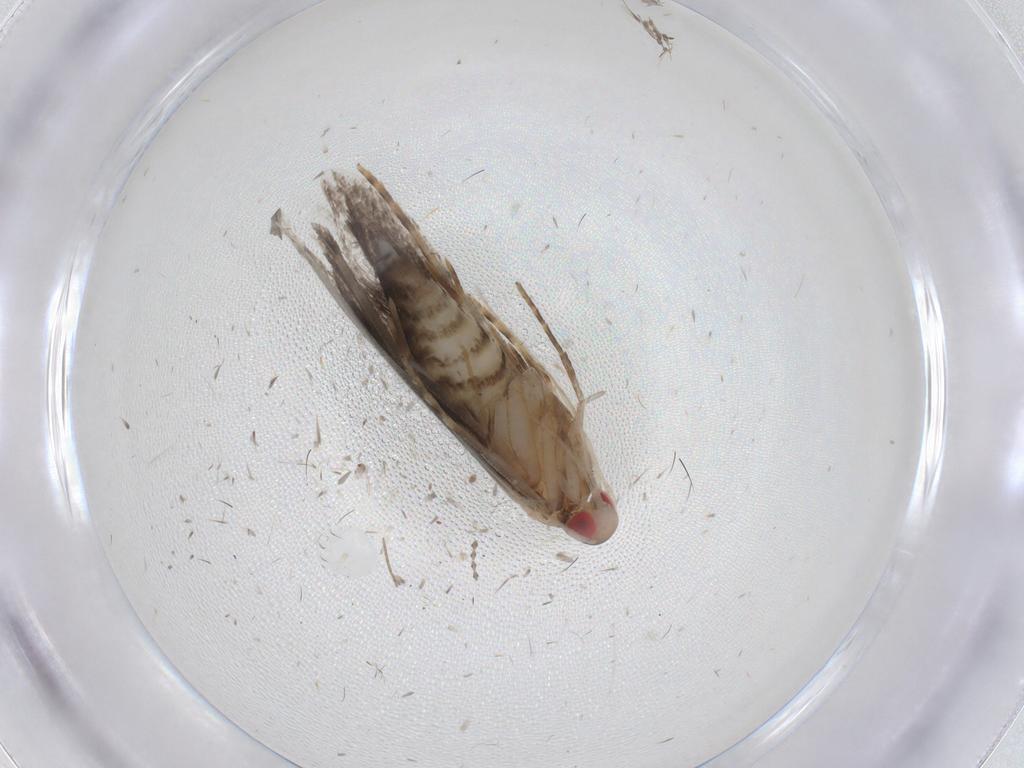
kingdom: Animalia
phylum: Arthropoda
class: Insecta
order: Lepidoptera
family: Gelechiidae
